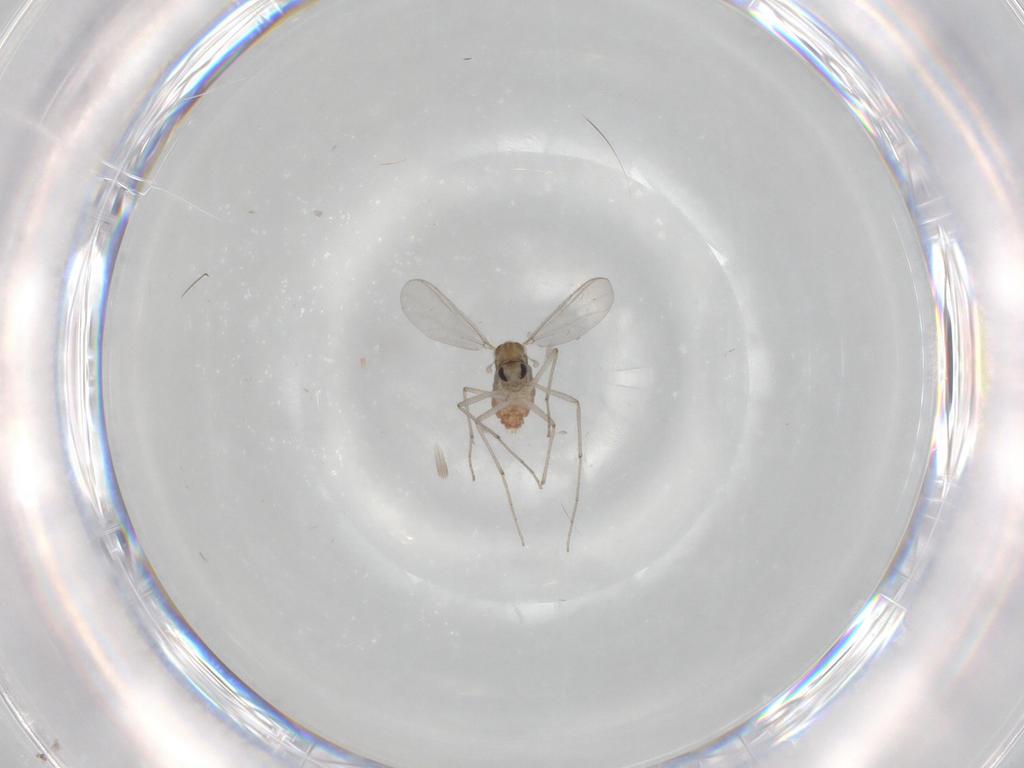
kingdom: Animalia
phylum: Arthropoda
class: Insecta
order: Diptera
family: Chironomidae
